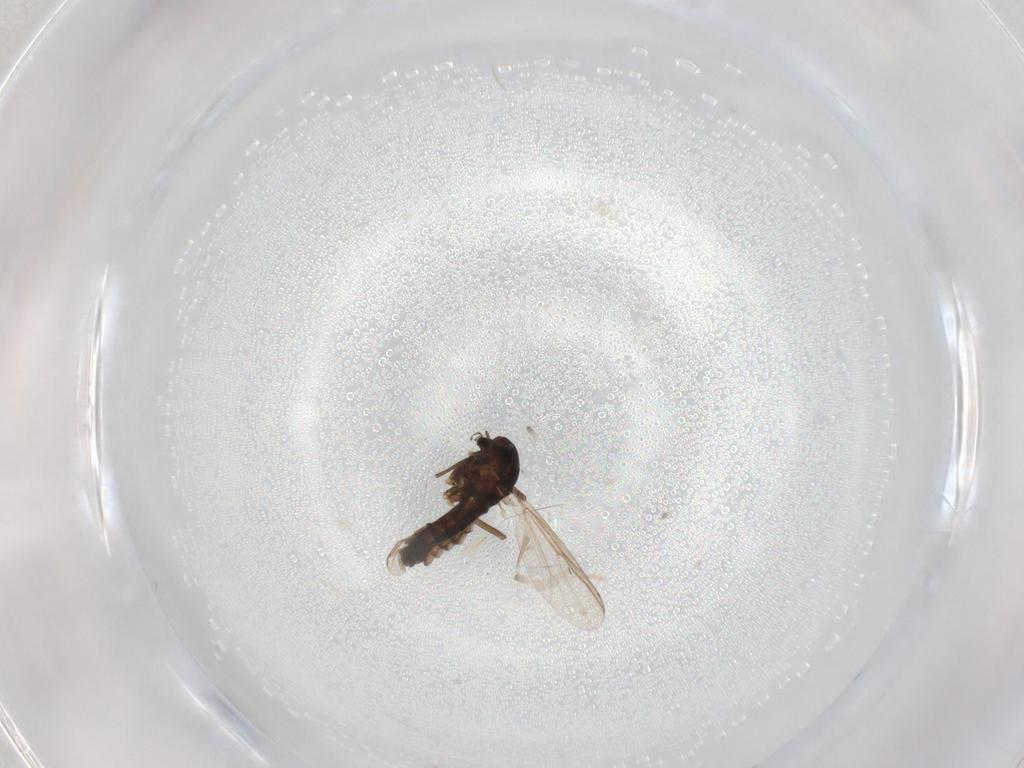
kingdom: Animalia
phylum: Arthropoda
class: Insecta
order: Diptera
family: Chironomidae
